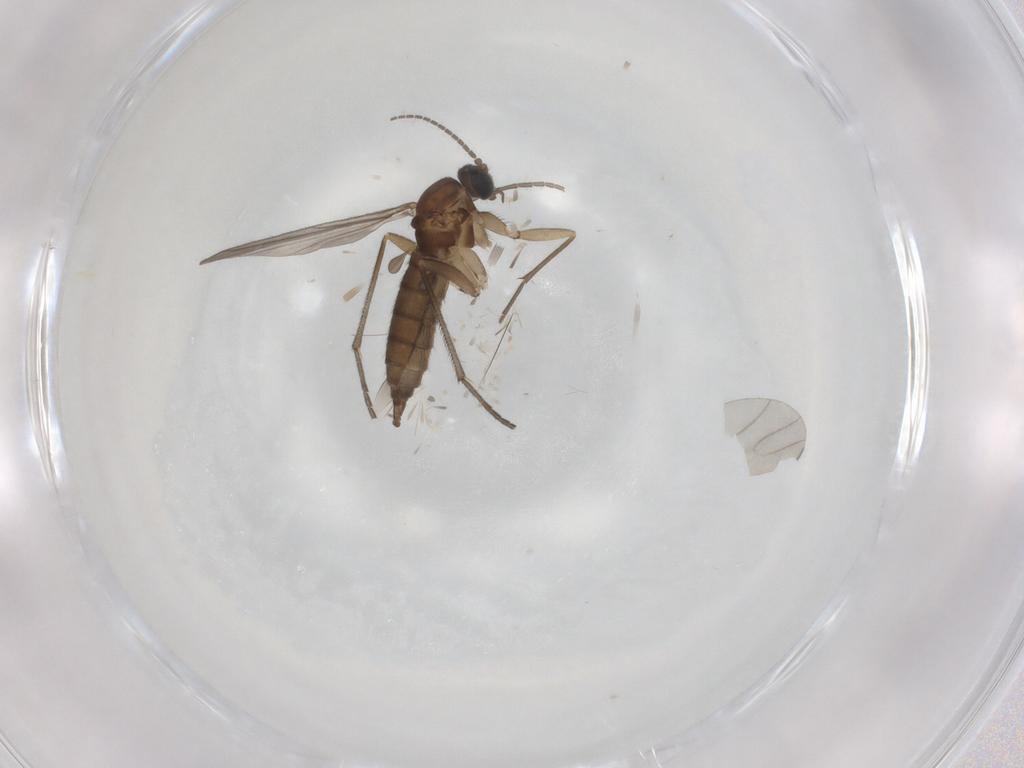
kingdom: Animalia
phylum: Arthropoda
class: Insecta
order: Diptera
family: Sciaridae
